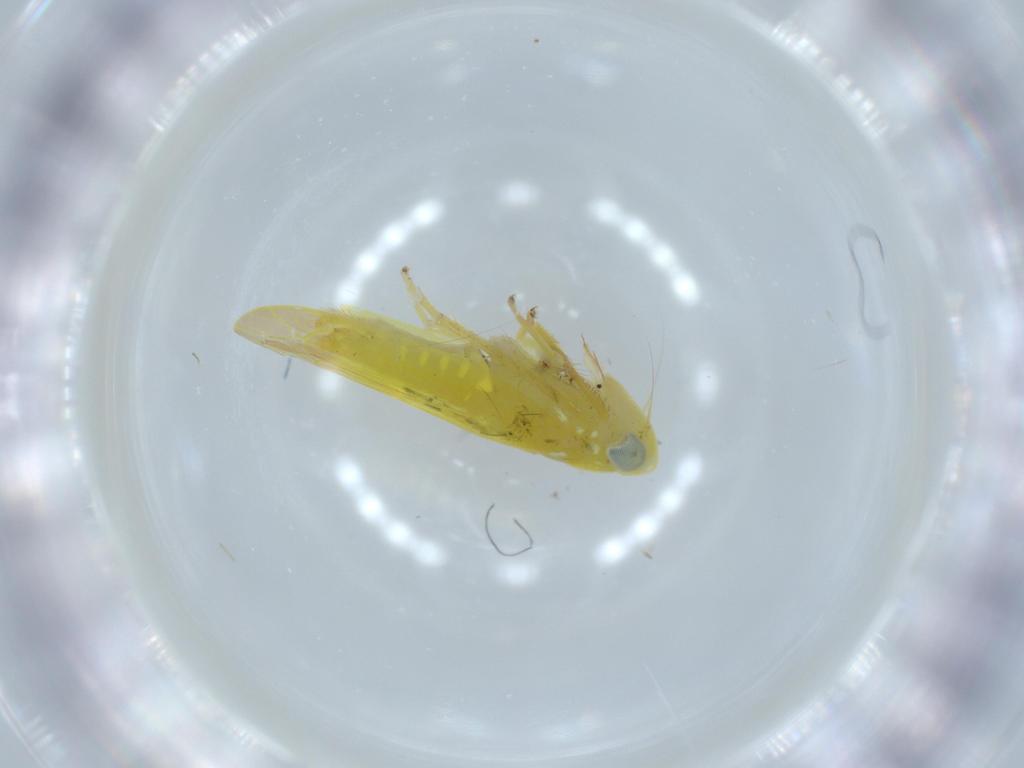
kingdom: Animalia
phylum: Arthropoda
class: Insecta
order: Hemiptera
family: Cicadellidae
